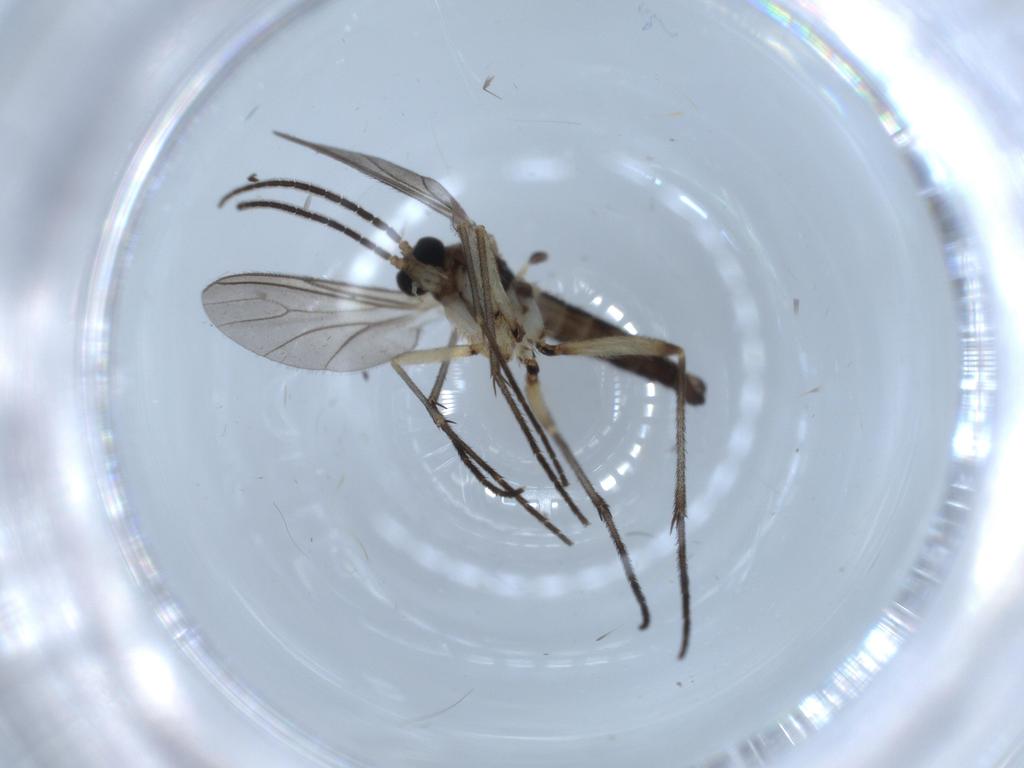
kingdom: Animalia
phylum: Arthropoda
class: Insecta
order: Diptera
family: Sciaridae
